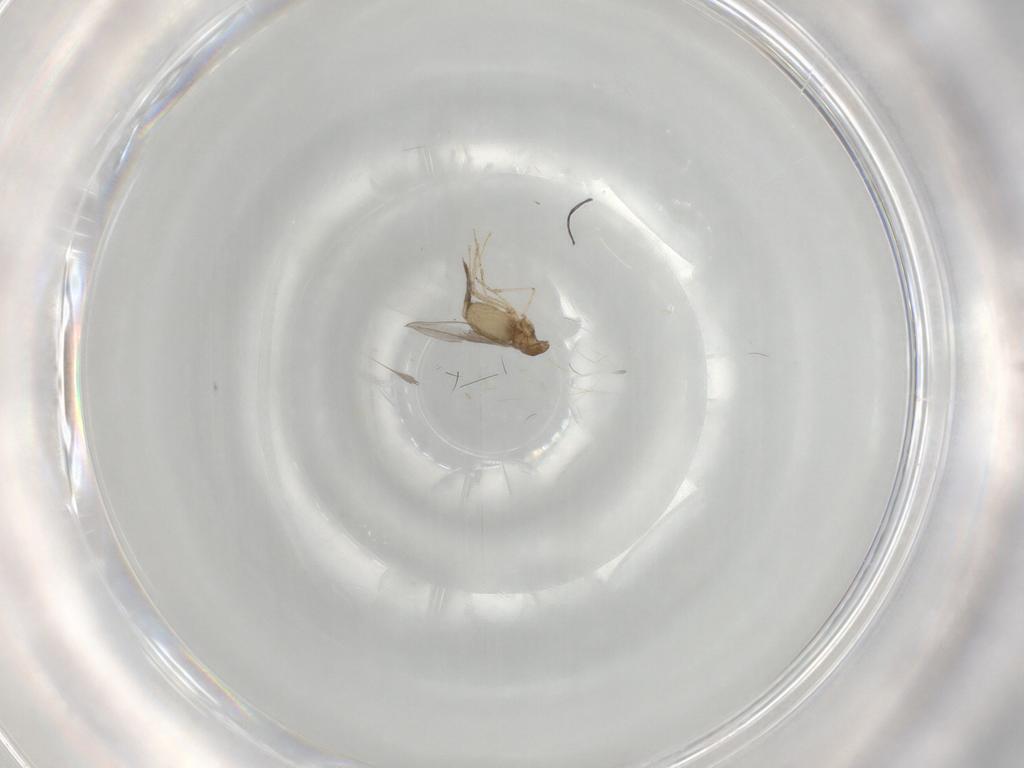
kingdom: Animalia
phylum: Arthropoda
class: Insecta
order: Diptera
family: Cecidomyiidae
